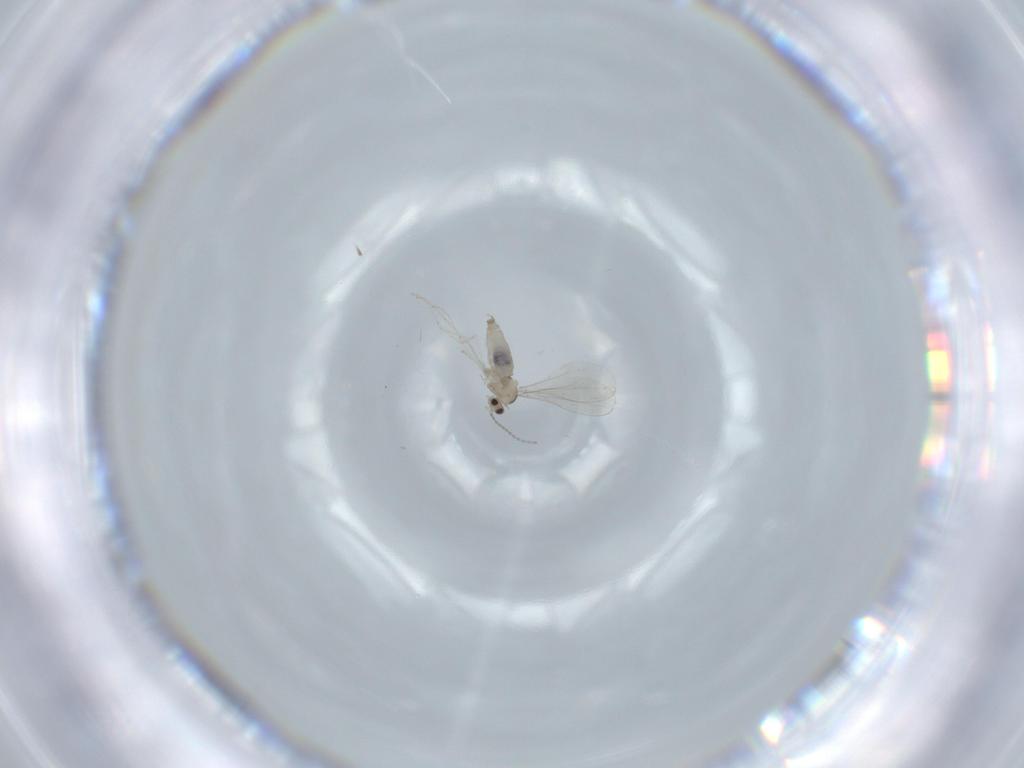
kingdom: Animalia
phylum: Arthropoda
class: Insecta
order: Diptera
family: Cecidomyiidae
